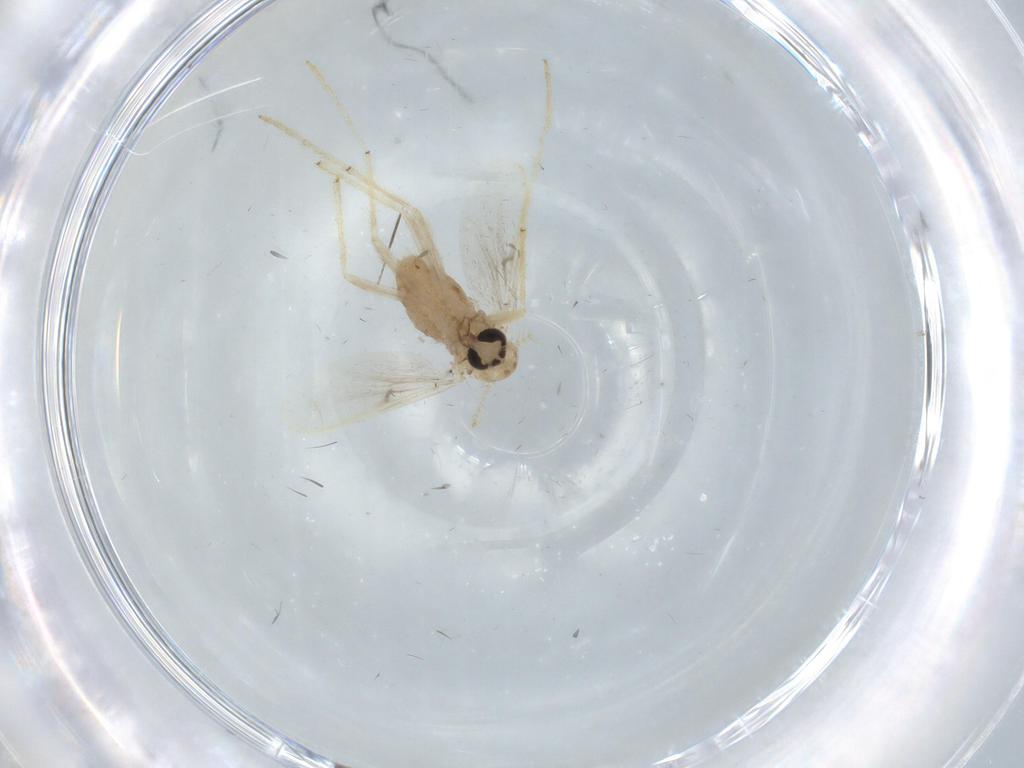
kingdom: Animalia
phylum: Arthropoda
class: Insecta
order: Diptera
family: Chironomidae
